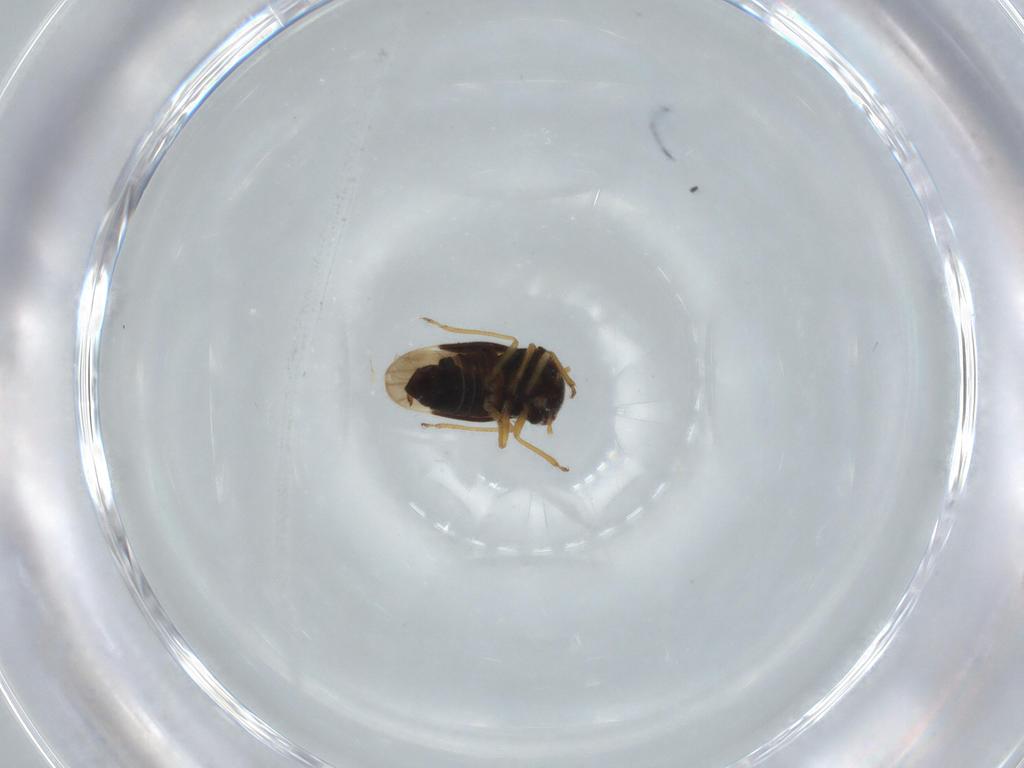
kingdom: Animalia
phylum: Arthropoda
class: Insecta
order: Hemiptera
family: Schizopteridae
